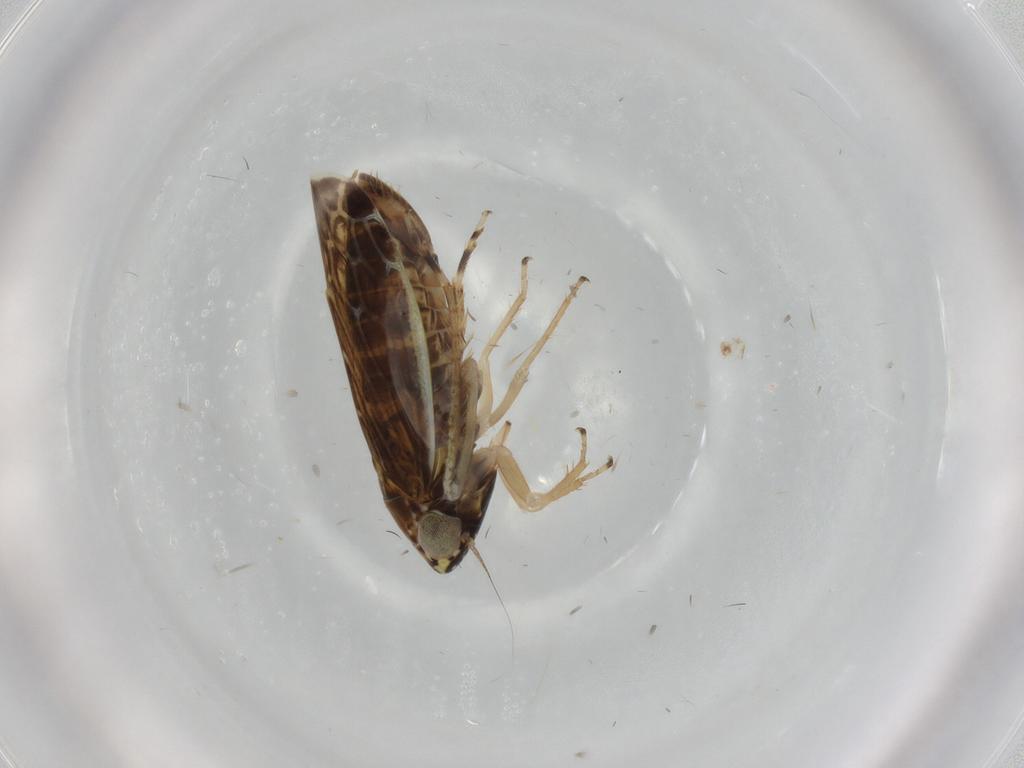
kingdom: Animalia
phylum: Arthropoda
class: Insecta
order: Hemiptera
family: Cicadellidae
